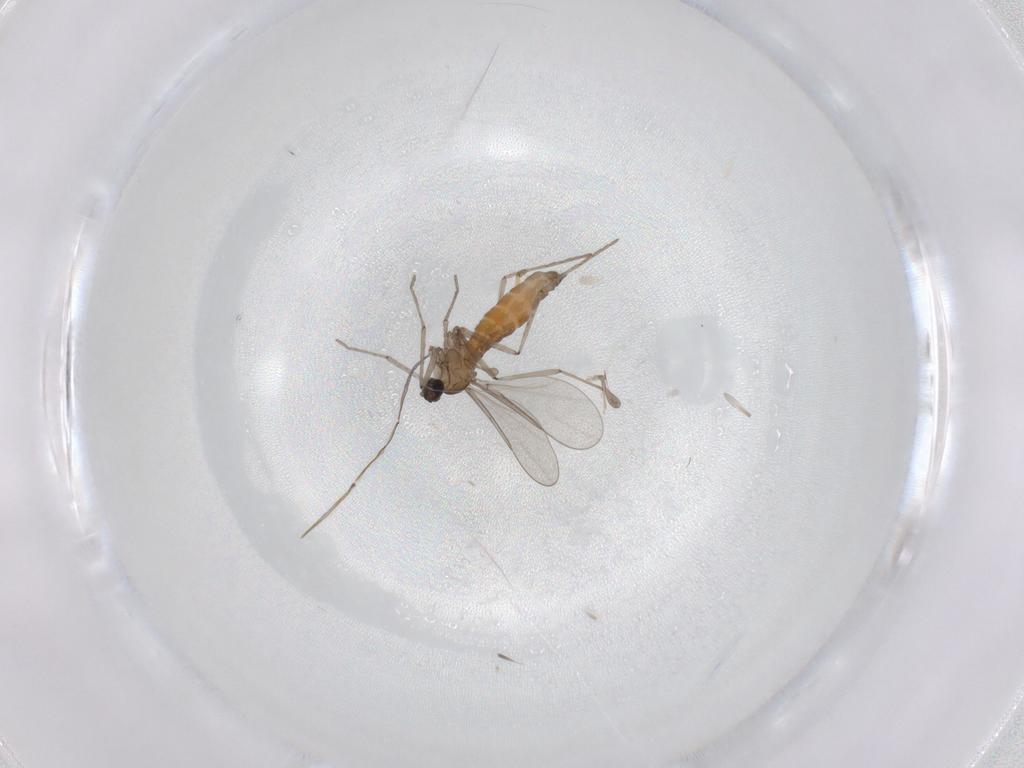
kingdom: Animalia
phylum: Arthropoda
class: Insecta
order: Diptera
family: Cecidomyiidae
